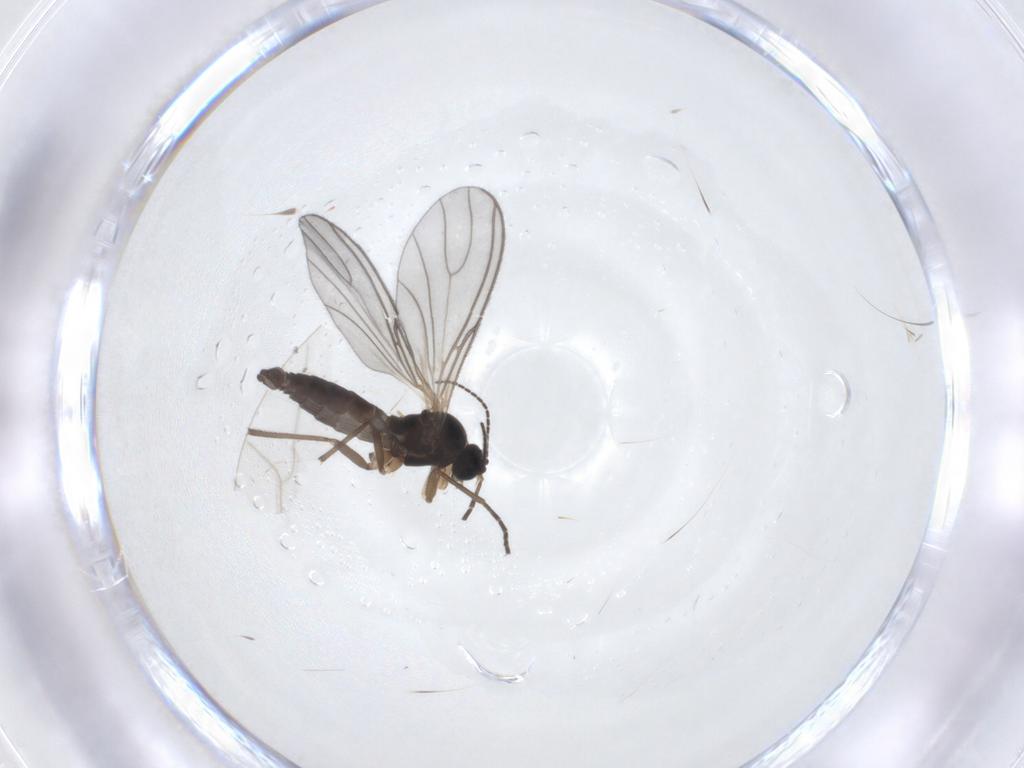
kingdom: Animalia
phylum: Arthropoda
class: Insecta
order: Diptera
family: Sciaridae
